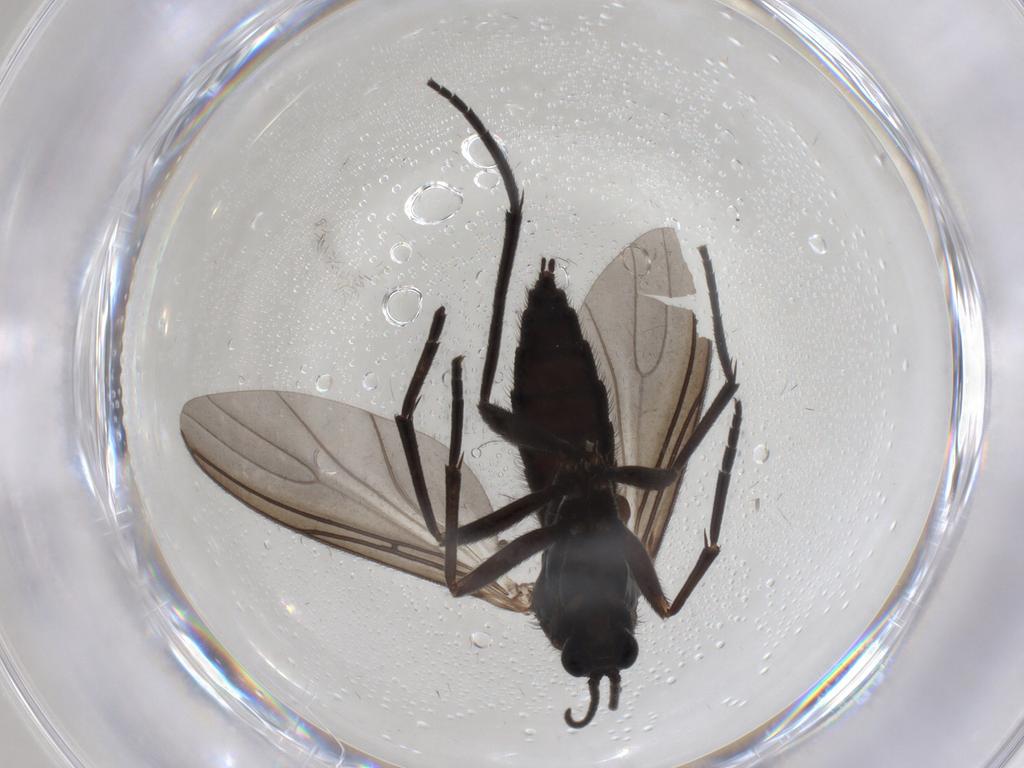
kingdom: Animalia
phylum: Arthropoda
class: Insecta
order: Diptera
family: Sciaridae
